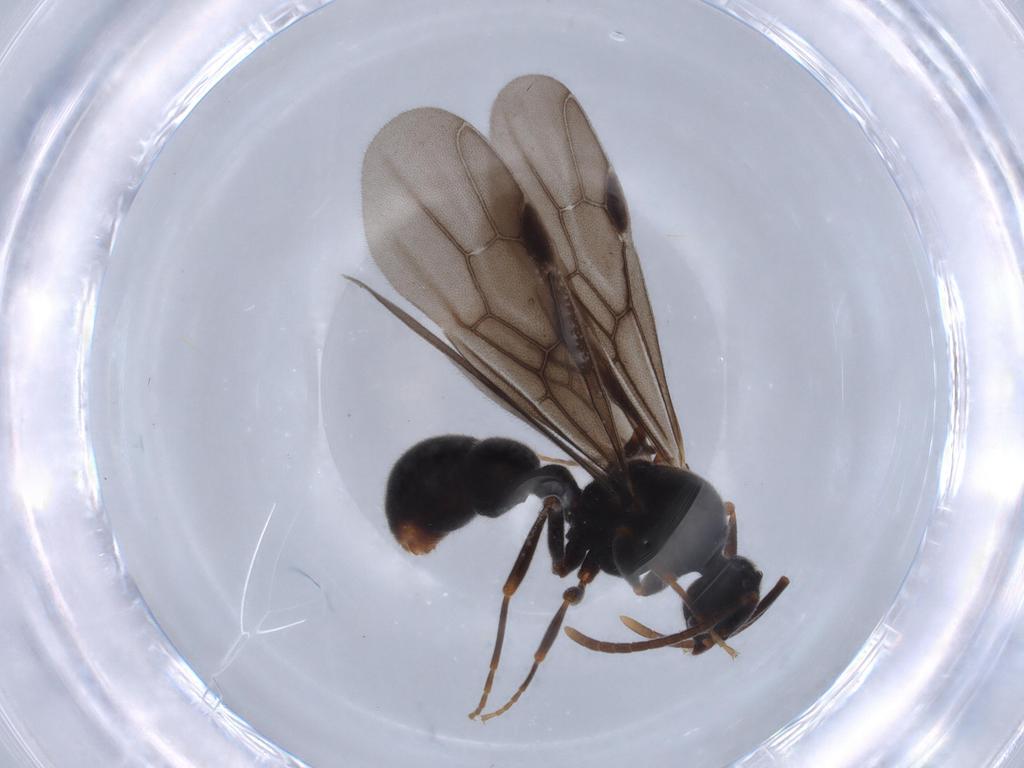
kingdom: Animalia
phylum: Arthropoda
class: Insecta
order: Hymenoptera
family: Formicidae
